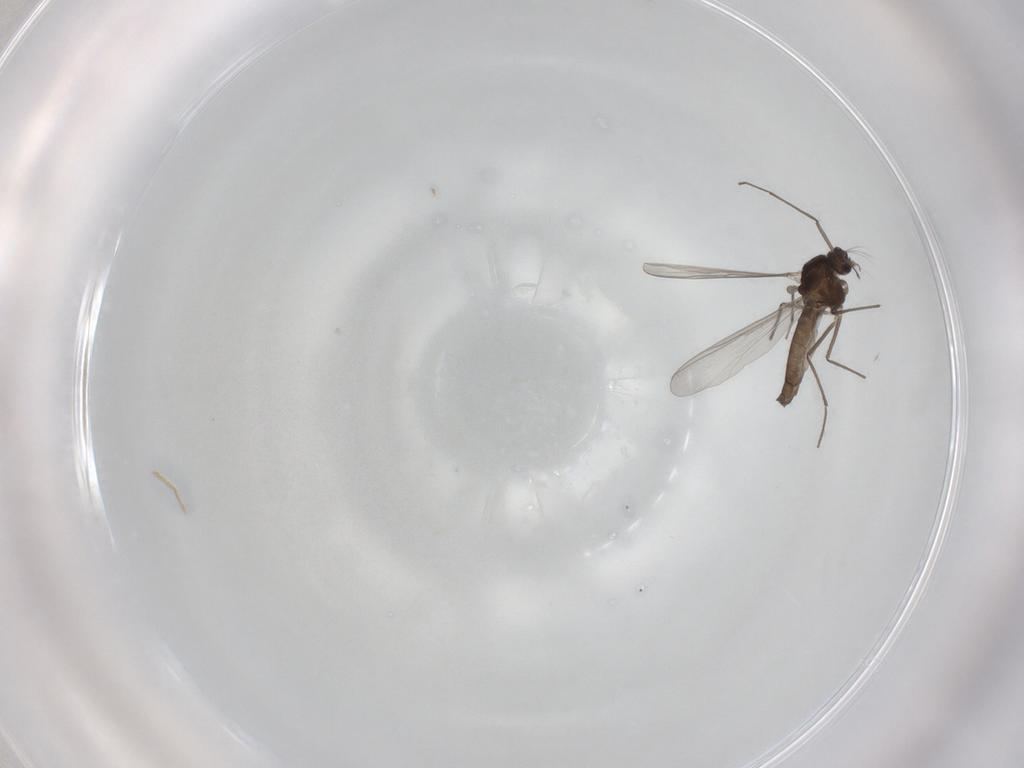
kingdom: Animalia
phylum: Arthropoda
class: Insecta
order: Diptera
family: Chironomidae
